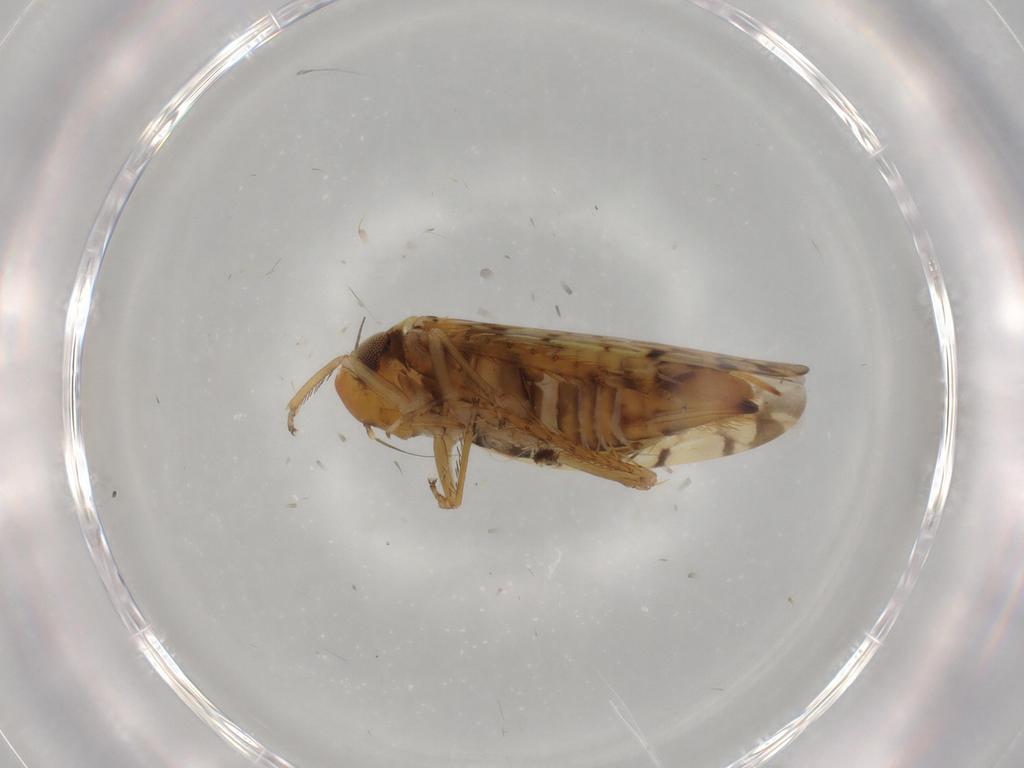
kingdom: Animalia
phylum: Arthropoda
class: Insecta
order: Hemiptera
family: Cicadellidae
